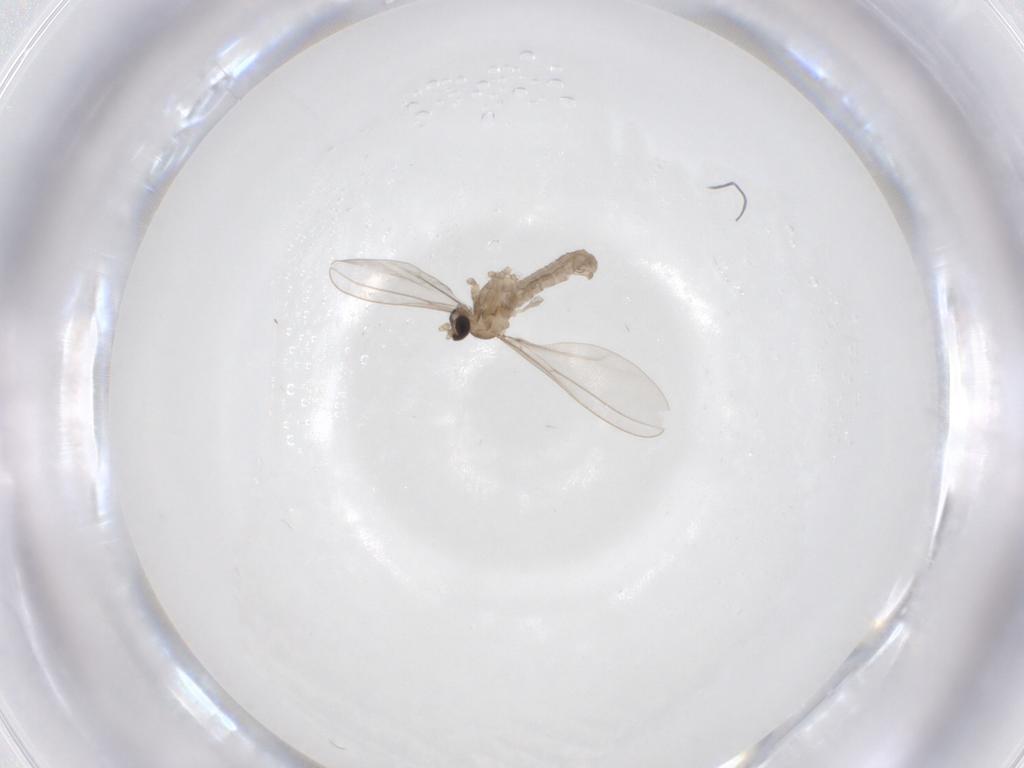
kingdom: Animalia
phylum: Arthropoda
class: Insecta
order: Diptera
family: Cecidomyiidae
